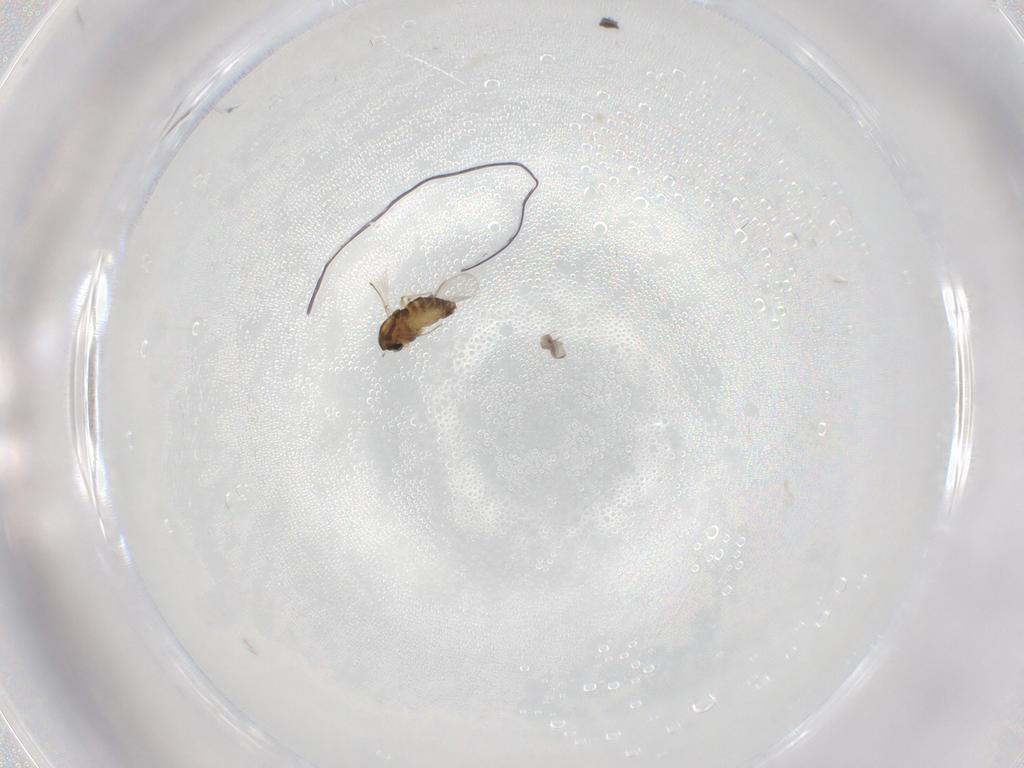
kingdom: Animalia
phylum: Arthropoda
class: Insecta
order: Diptera
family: Chironomidae
